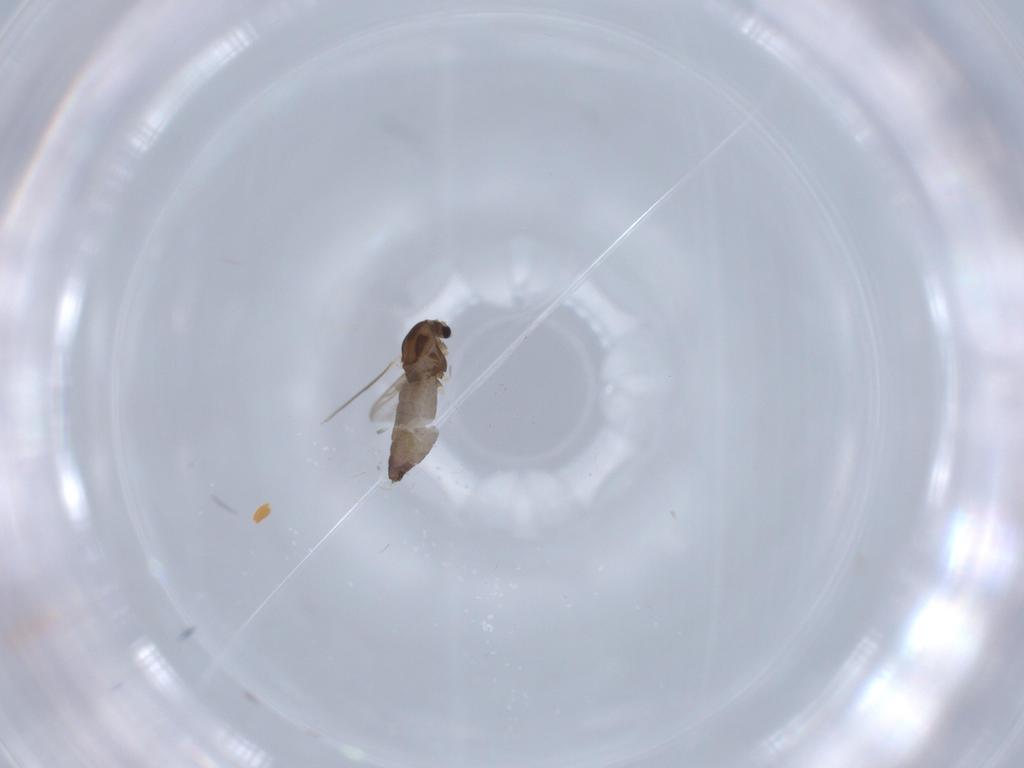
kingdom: Animalia
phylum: Arthropoda
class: Insecta
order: Diptera
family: Chironomidae
